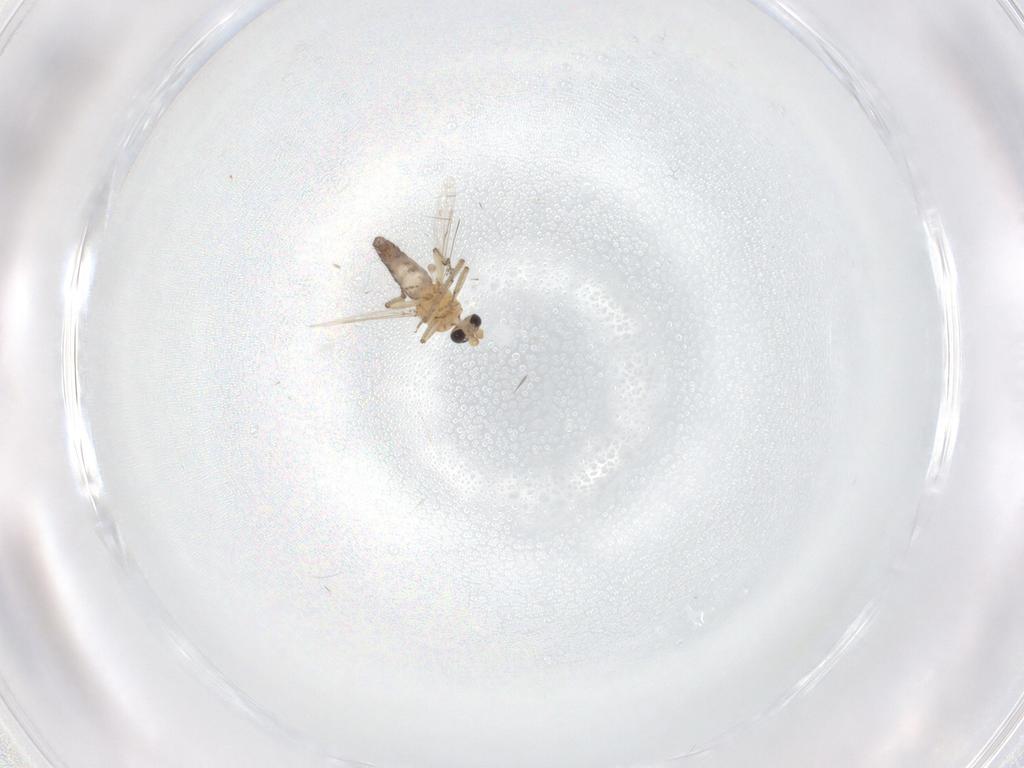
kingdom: Animalia
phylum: Arthropoda
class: Insecta
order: Diptera
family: Ceratopogonidae
